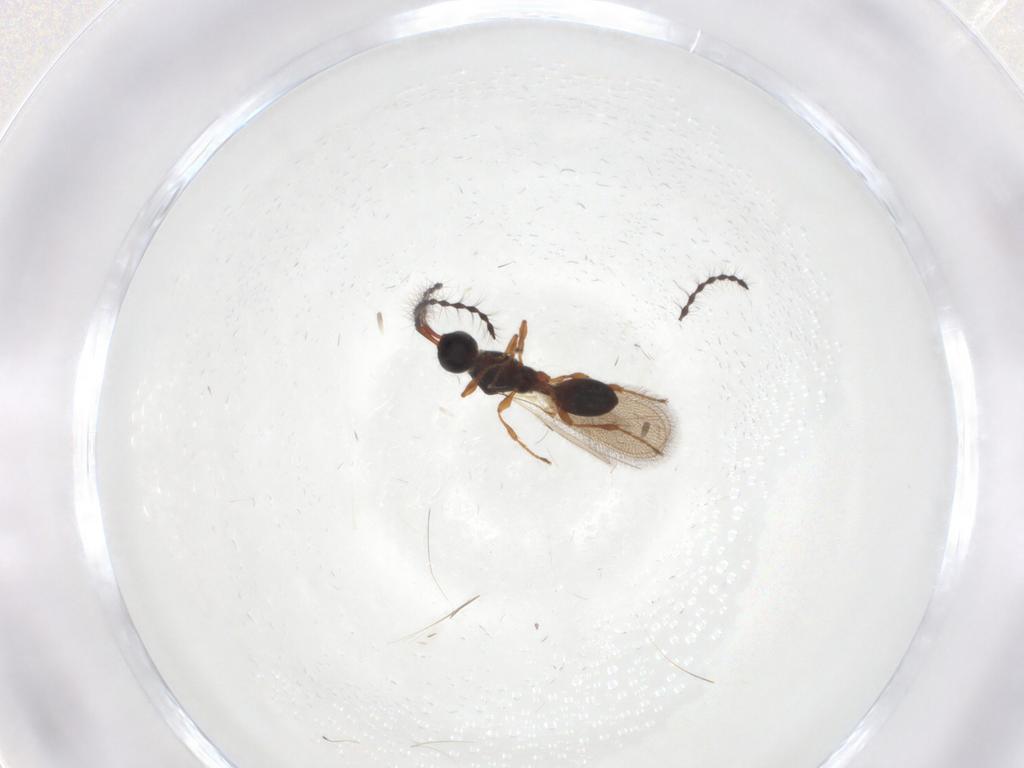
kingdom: Animalia
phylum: Arthropoda
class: Insecta
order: Hymenoptera
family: Diapriidae
